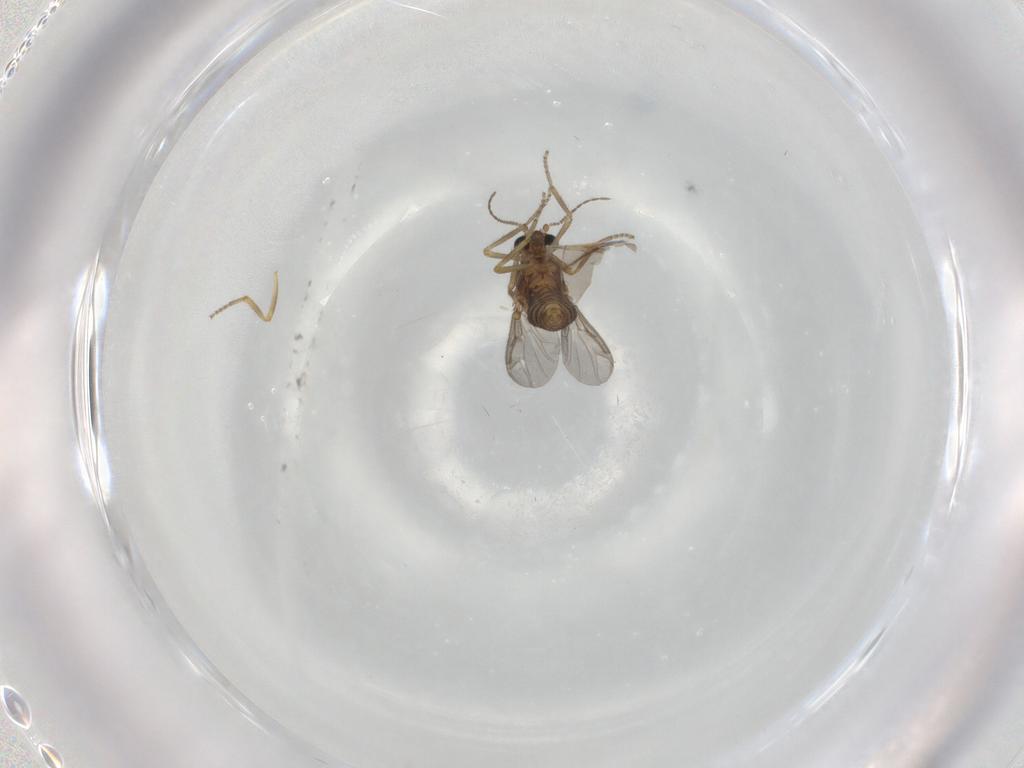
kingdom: Animalia
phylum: Arthropoda
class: Insecta
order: Diptera
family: Ceratopogonidae
